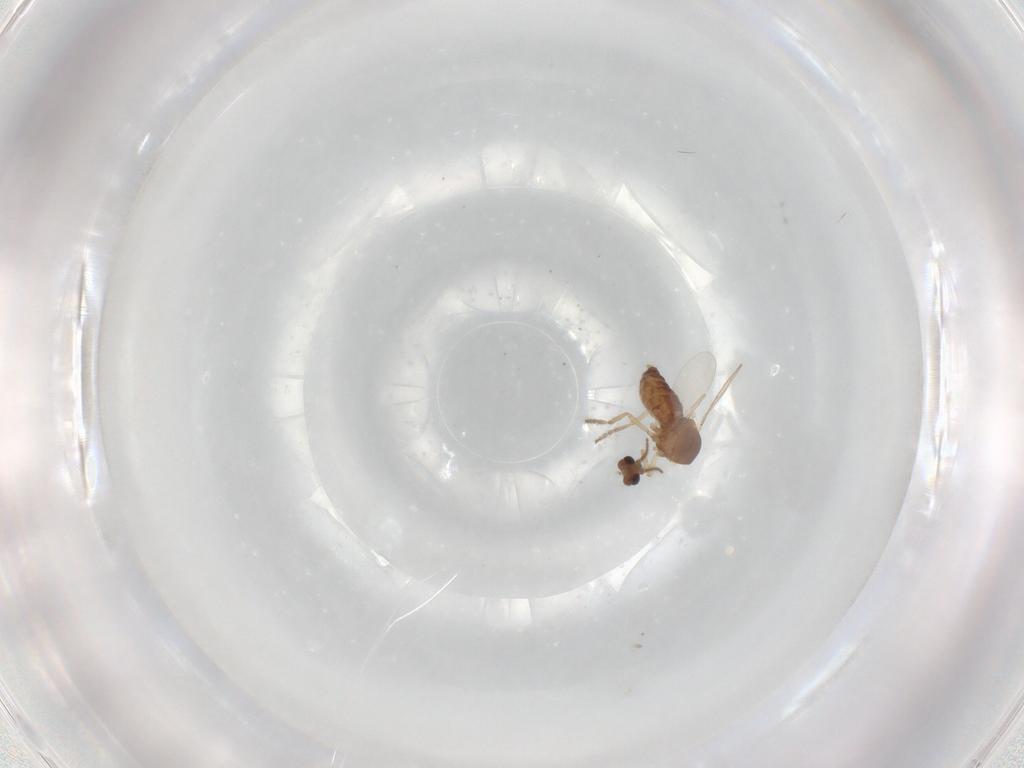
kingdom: Animalia
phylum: Arthropoda
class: Insecta
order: Diptera
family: Ceratopogonidae
